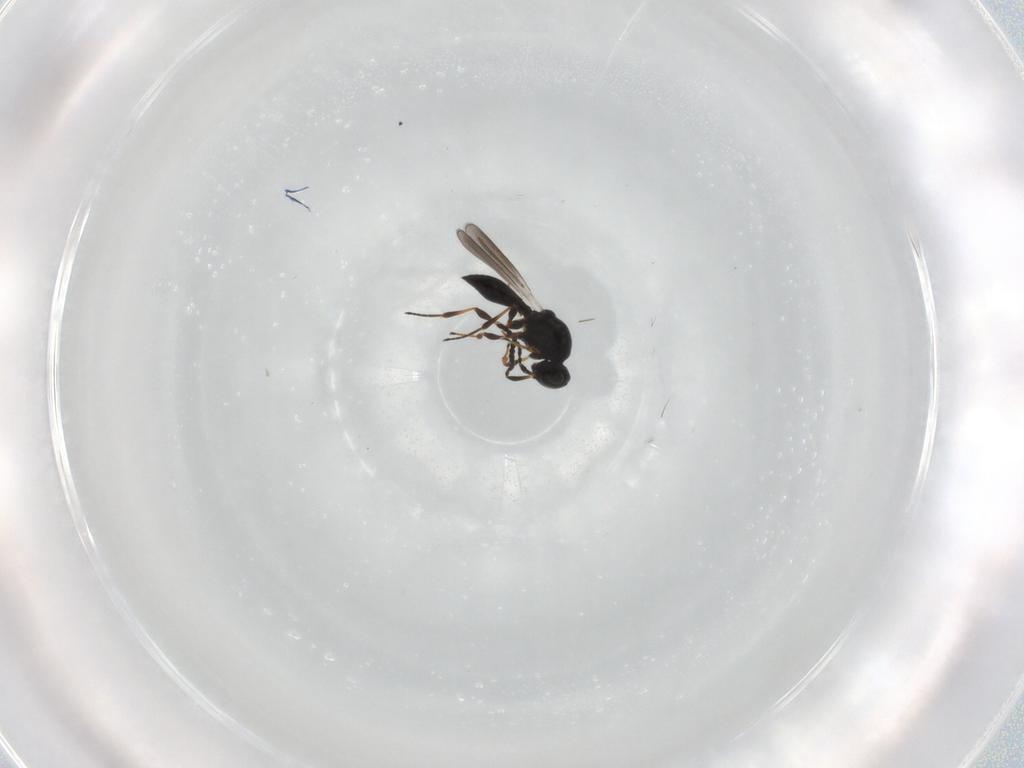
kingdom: Animalia
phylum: Arthropoda
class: Insecta
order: Hymenoptera
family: Platygastridae
